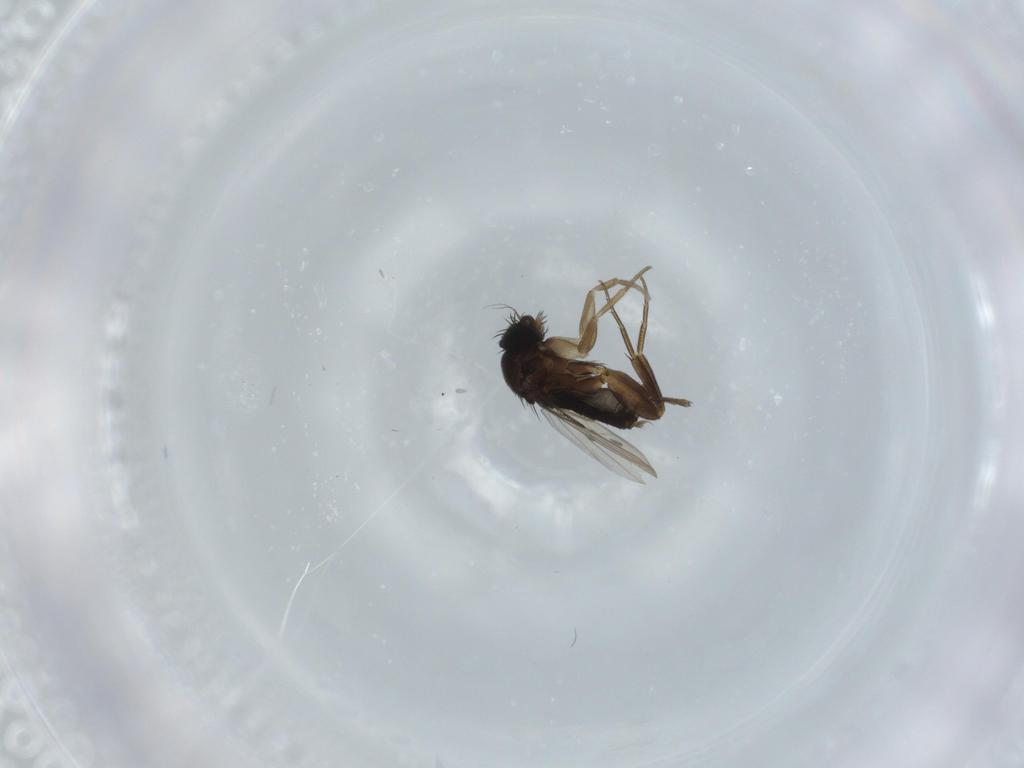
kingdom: Animalia
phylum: Arthropoda
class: Insecta
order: Diptera
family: Phoridae
